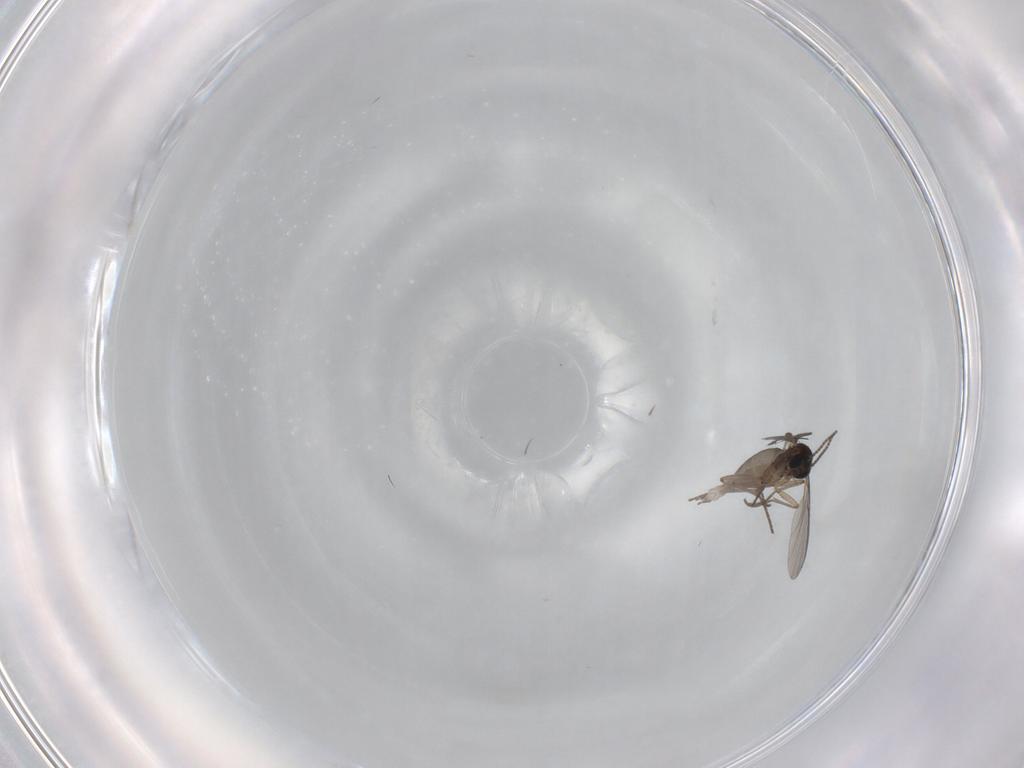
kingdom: Animalia
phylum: Arthropoda
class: Insecta
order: Diptera
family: Sciaridae
